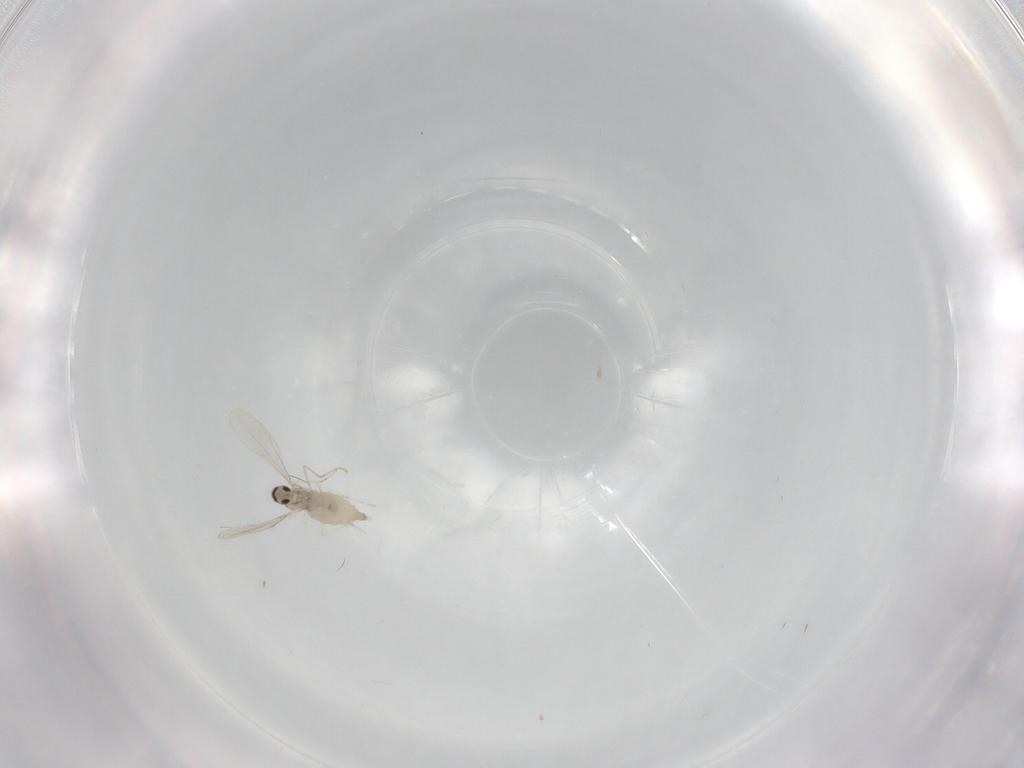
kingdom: Animalia
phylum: Arthropoda
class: Insecta
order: Diptera
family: Cecidomyiidae
